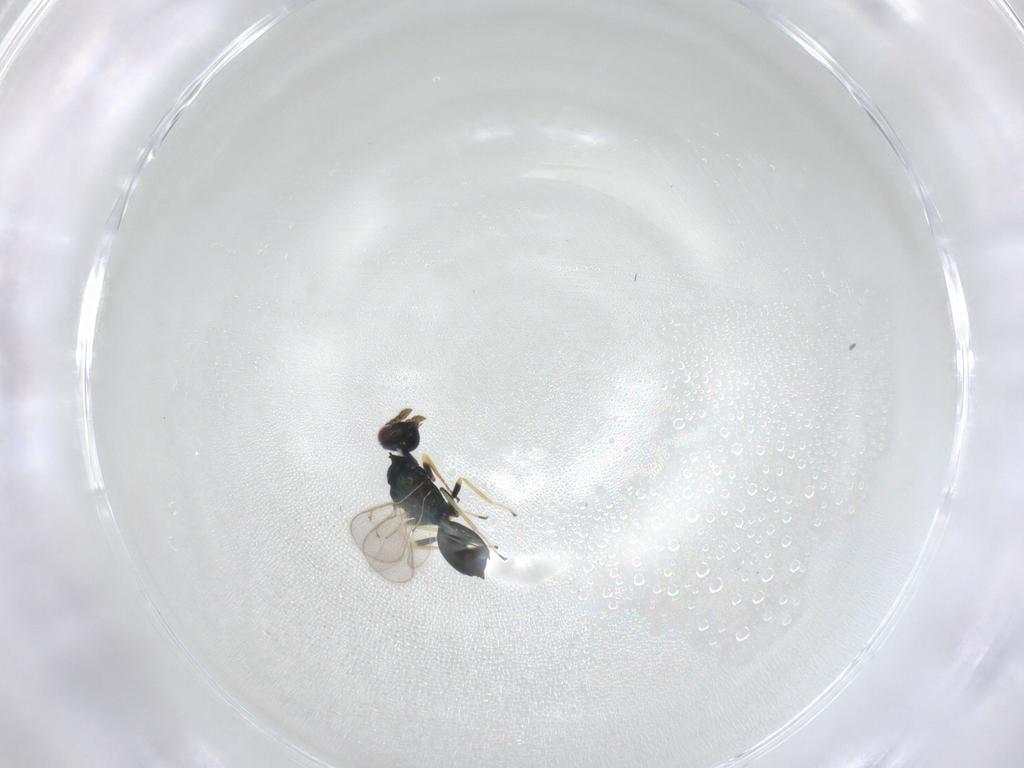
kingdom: Animalia
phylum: Arthropoda
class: Insecta
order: Hymenoptera
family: Eulophidae
